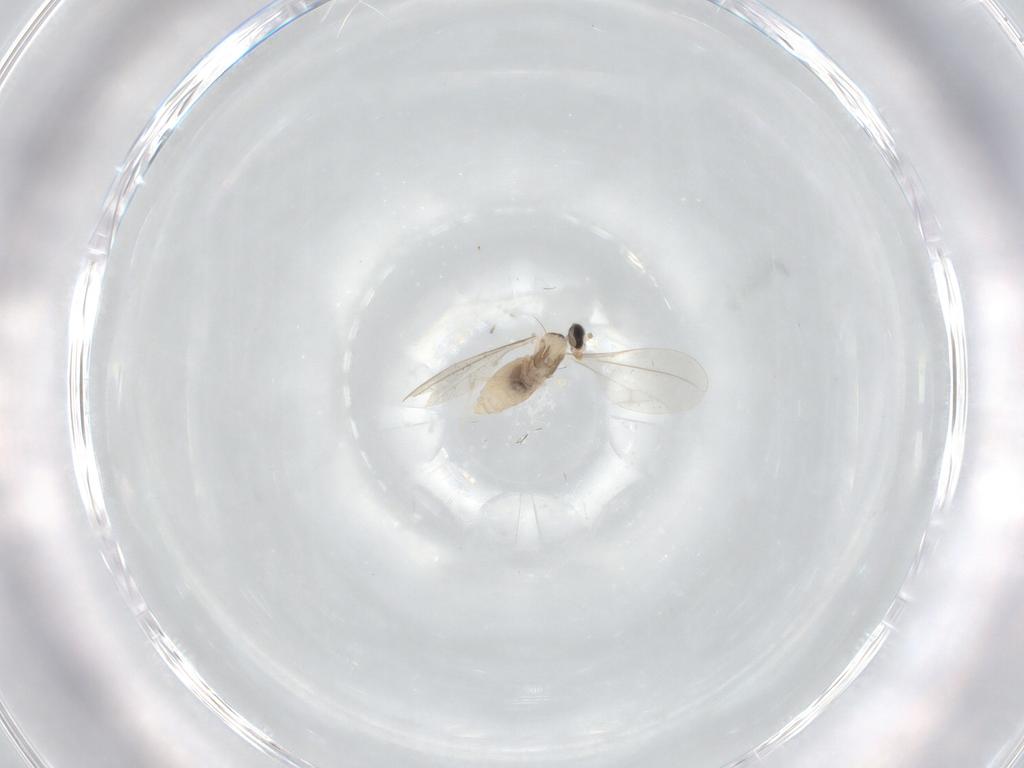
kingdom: Animalia
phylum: Arthropoda
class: Insecta
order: Diptera
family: Cecidomyiidae
